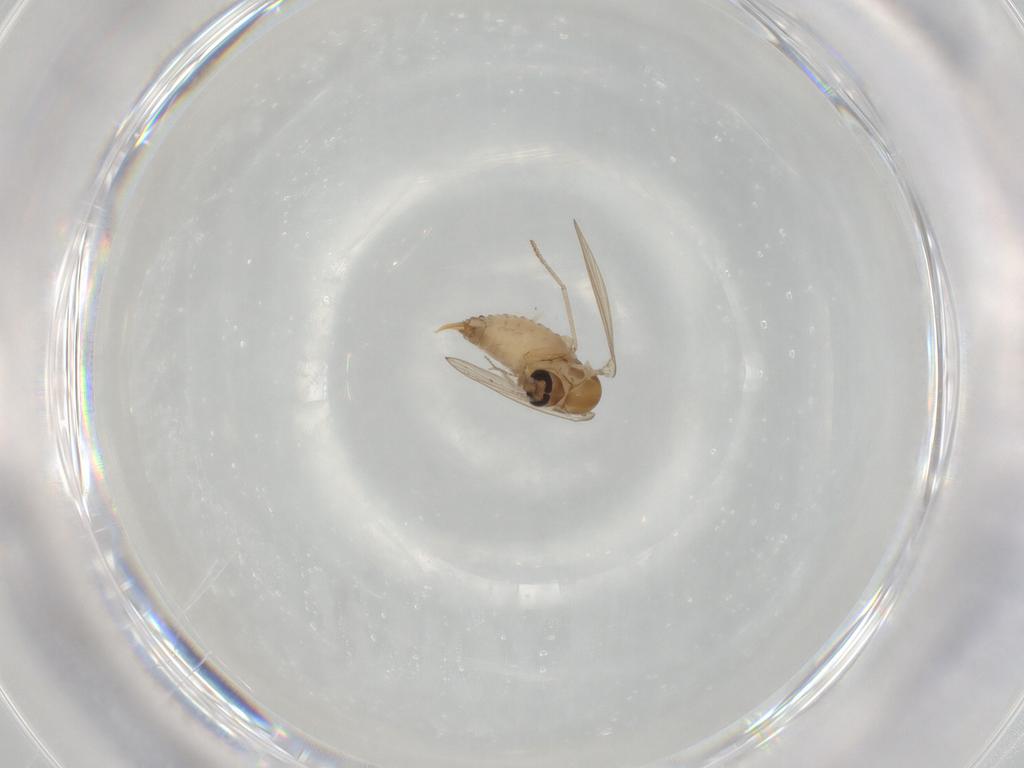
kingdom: Animalia
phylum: Arthropoda
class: Insecta
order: Diptera
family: Psychodidae
